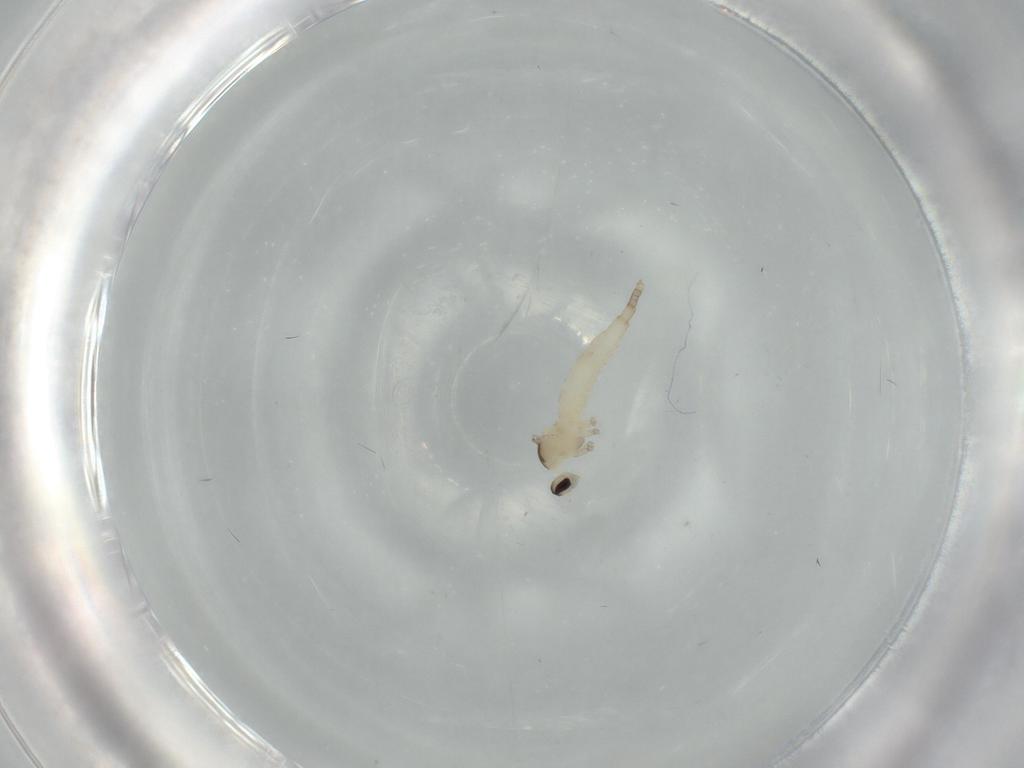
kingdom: Animalia
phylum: Arthropoda
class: Insecta
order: Diptera
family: Cecidomyiidae
